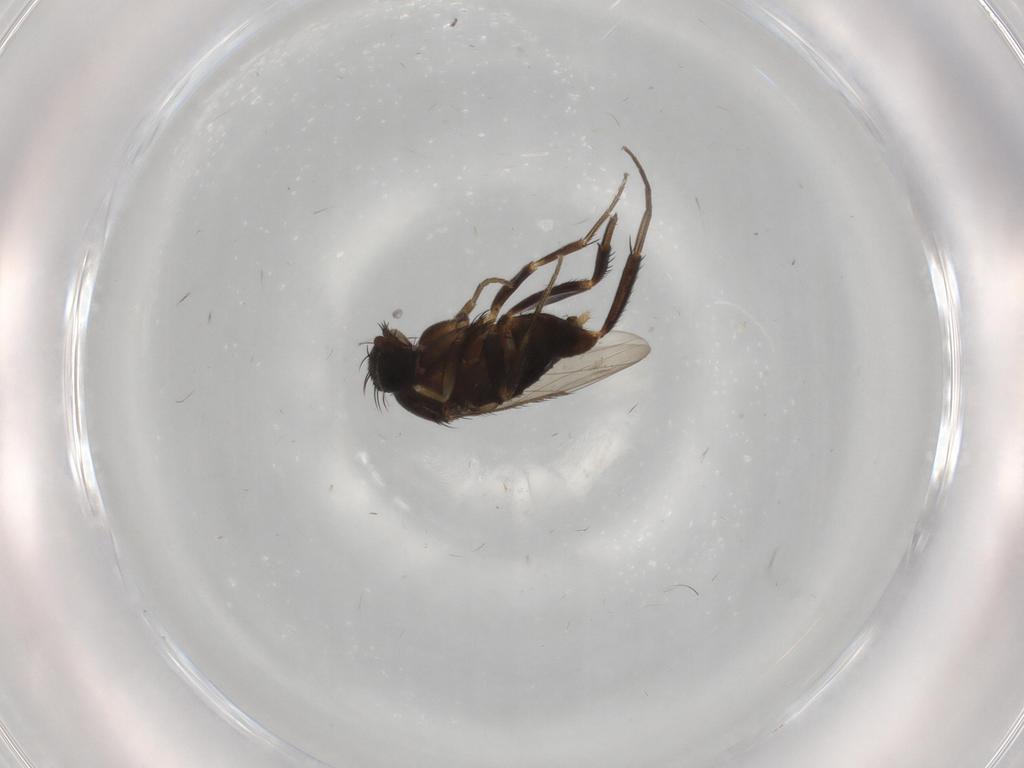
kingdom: Animalia
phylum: Arthropoda
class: Insecta
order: Diptera
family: Phoridae
